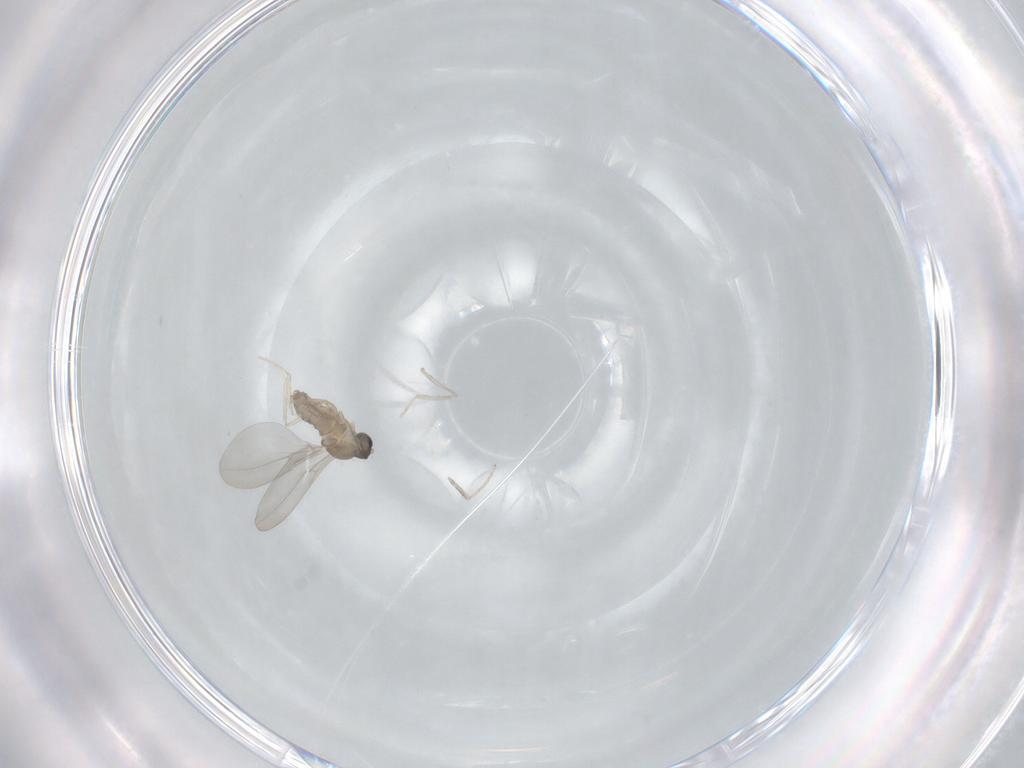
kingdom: Animalia
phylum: Arthropoda
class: Insecta
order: Diptera
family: Cecidomyiidae
